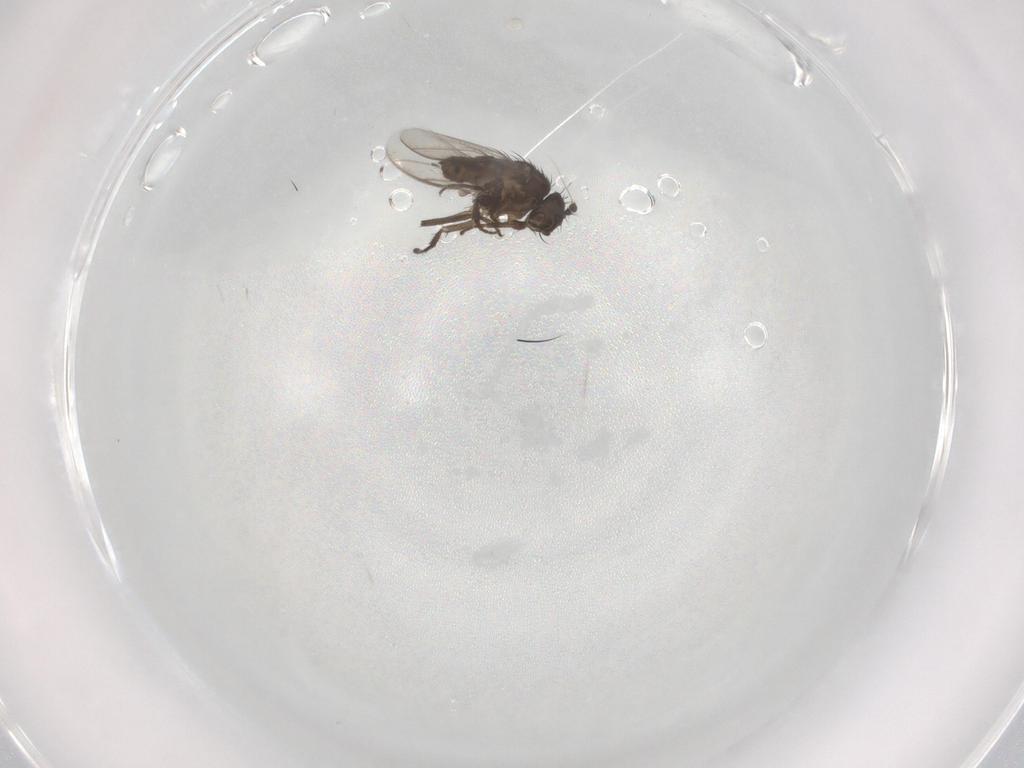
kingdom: Animalia
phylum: Arthropoda
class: Insecta
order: Diptera
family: Sphaeroceridae
